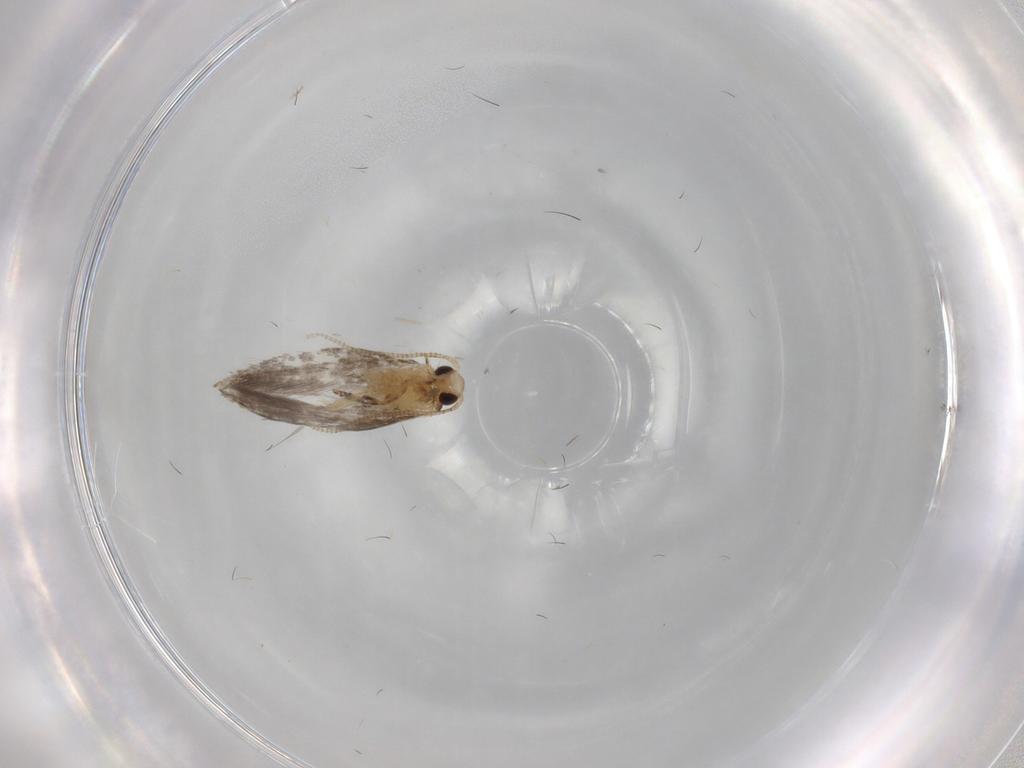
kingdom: Animalia
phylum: Arthropoda
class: Insecta
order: Lepidoptera
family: Tineidae
